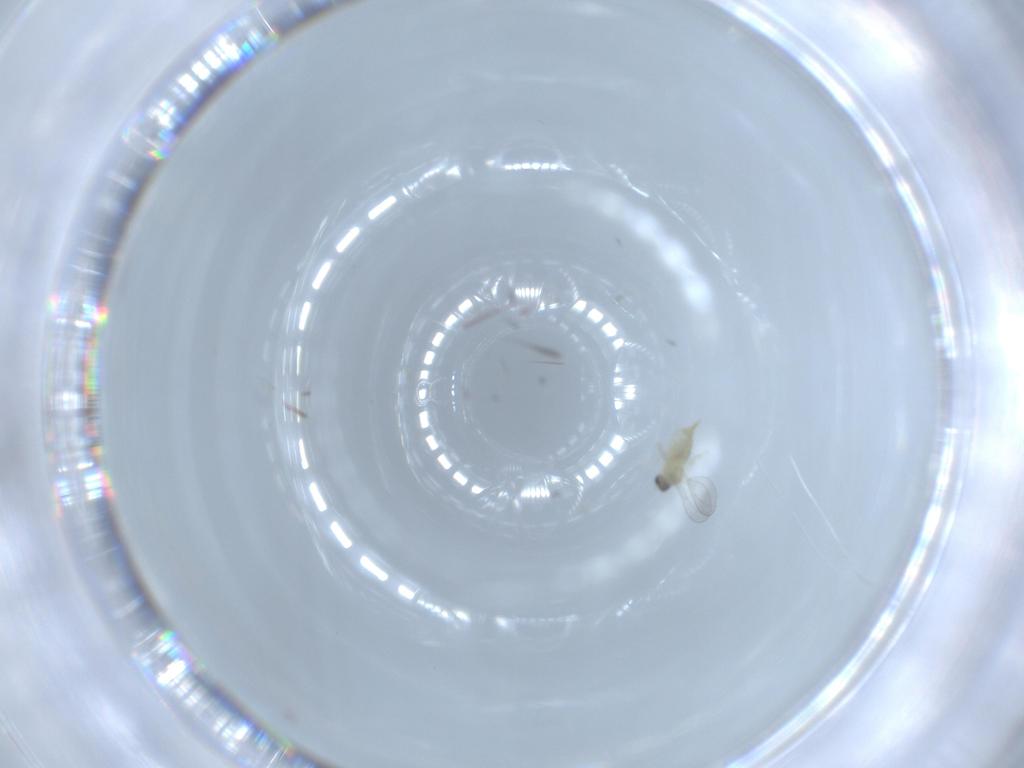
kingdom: Animalia
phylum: Arthropoda
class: Insecta
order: Diptera
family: Cecidomyiidae
